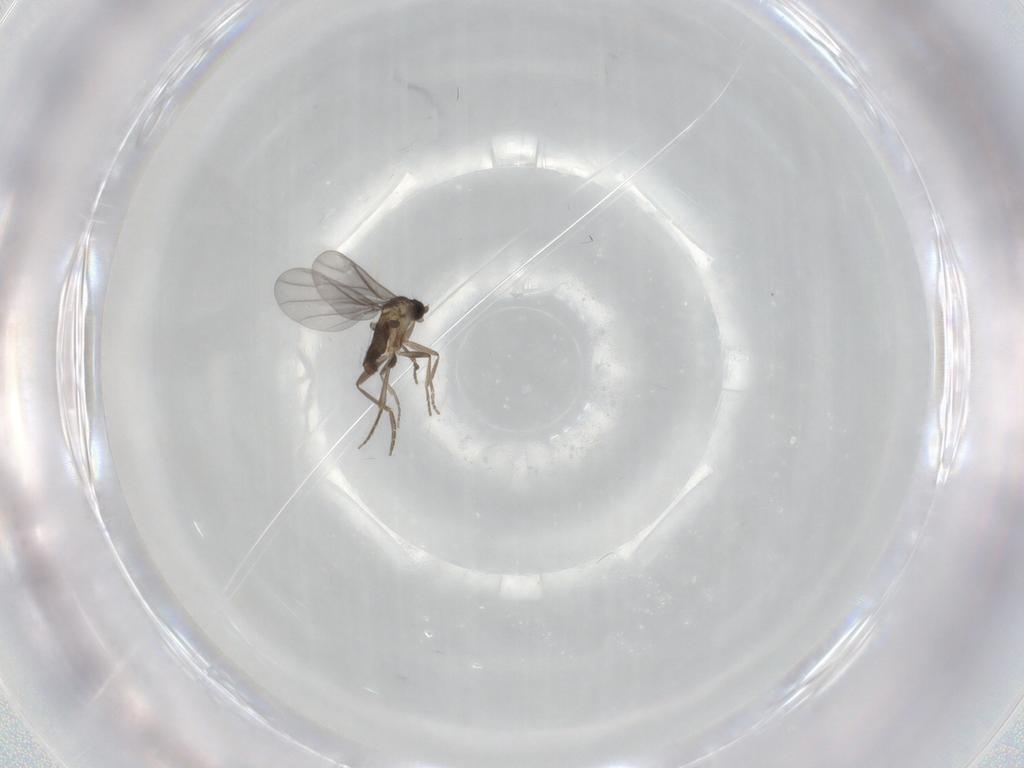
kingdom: Animalia
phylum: Arthropoda
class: Insecta
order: Diptera
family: Phoridae
